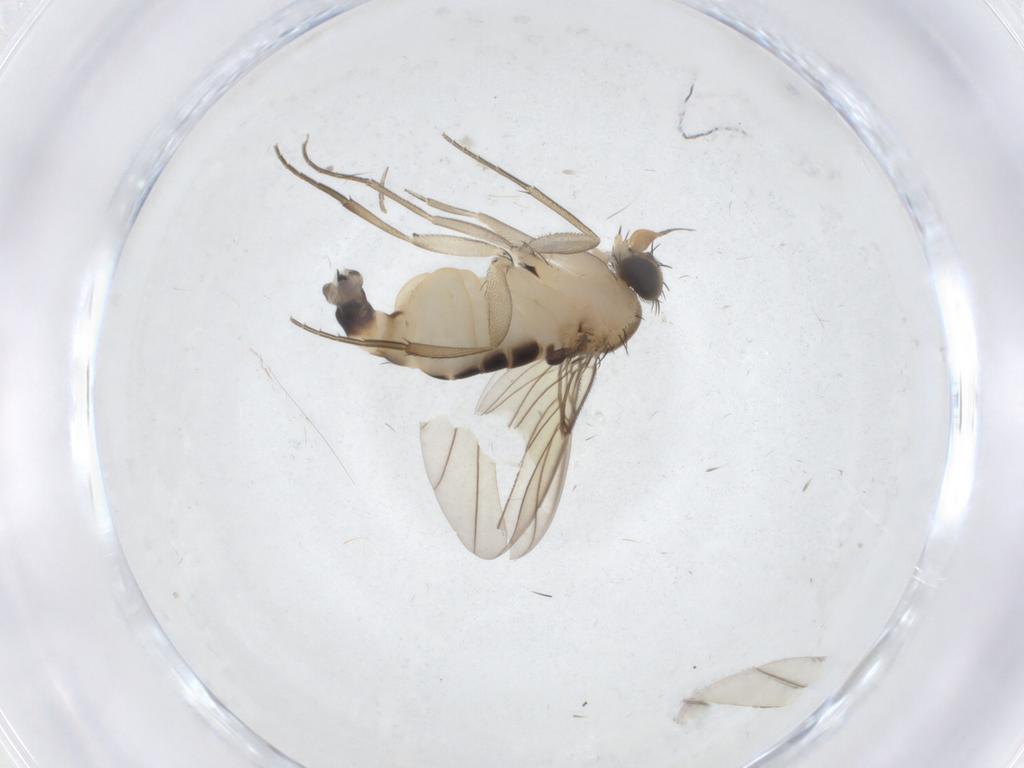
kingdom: Animalia
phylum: Arthropoda
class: Insecta
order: Diptera
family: Phoridae
